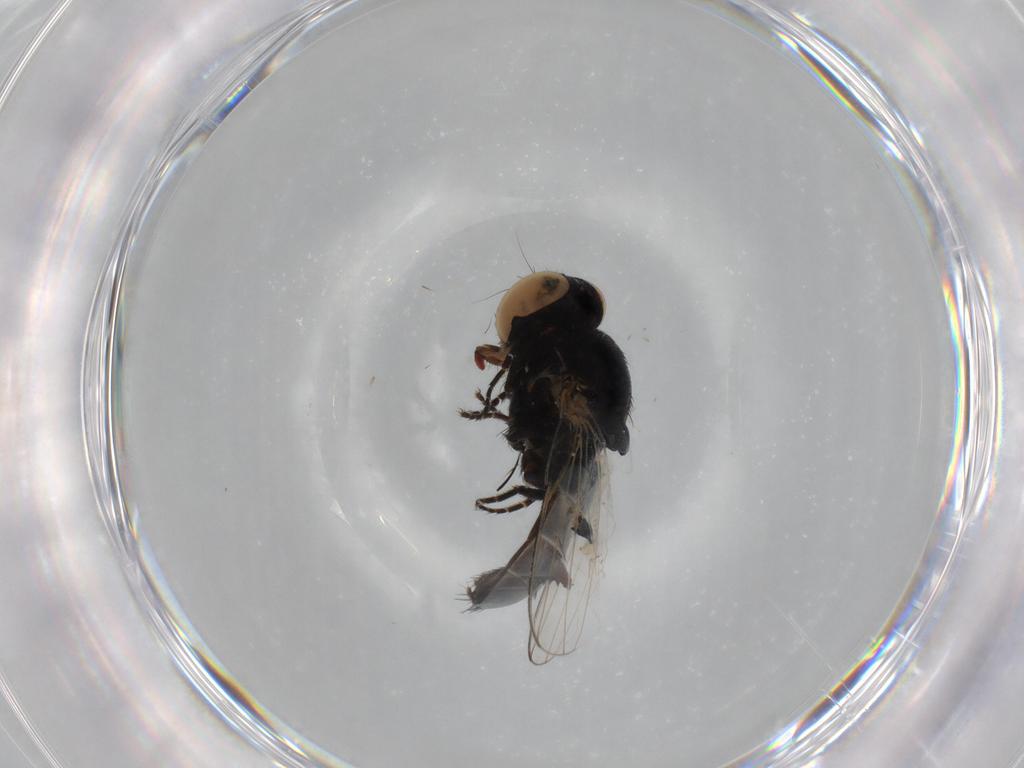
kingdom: Animalia
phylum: Arthropoda
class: Insecta
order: Diptera
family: Milichiidae
